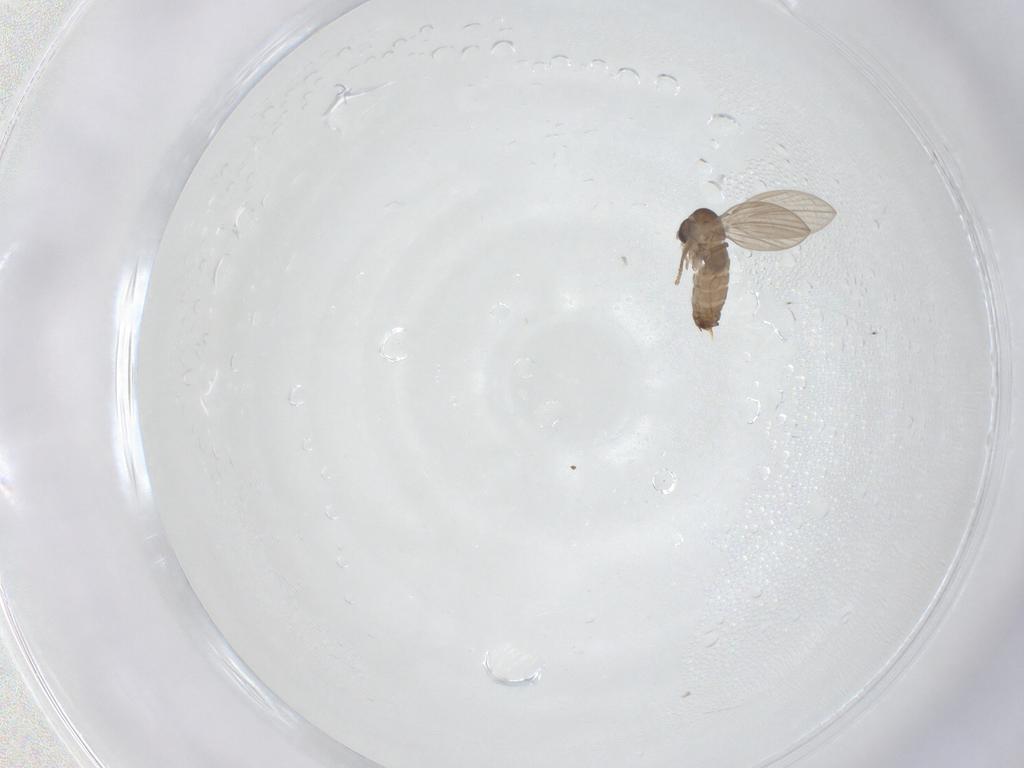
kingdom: Animalia
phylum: Arthropoda
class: Insecta
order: Diptera
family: Psychodidae
